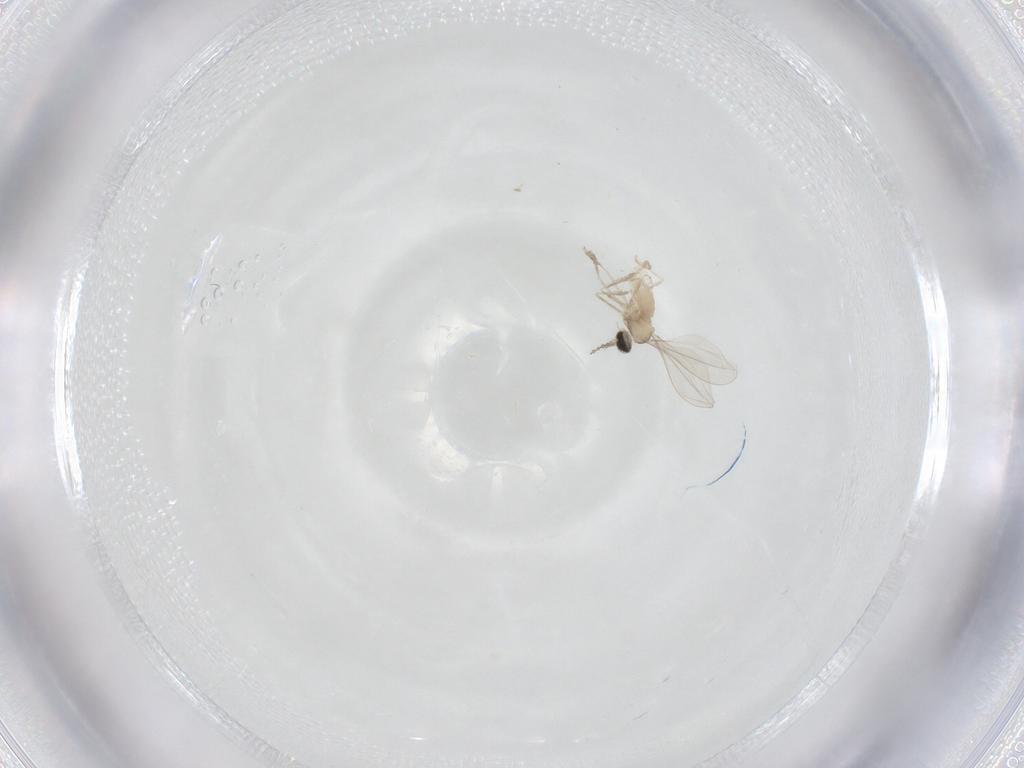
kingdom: Animalia
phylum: Arthropoda
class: Insecta
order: Diptera
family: Cecidomyiidae
